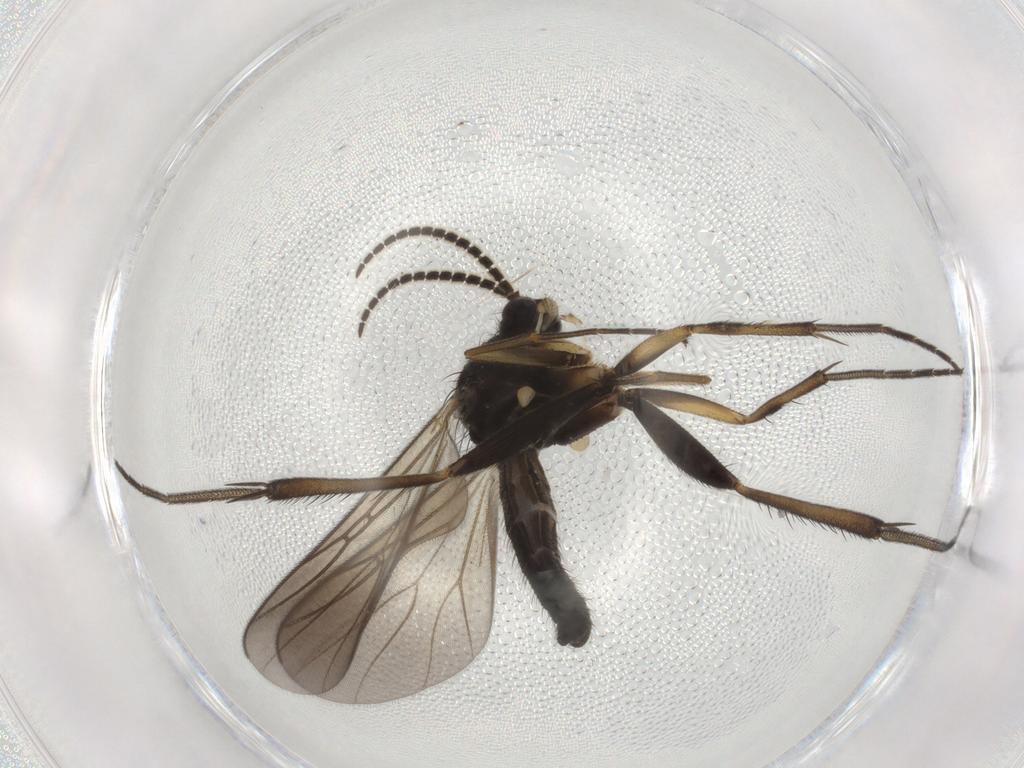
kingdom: Animalia
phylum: Arthropoda
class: Insecta
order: Diptera
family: Mycetophilidae
